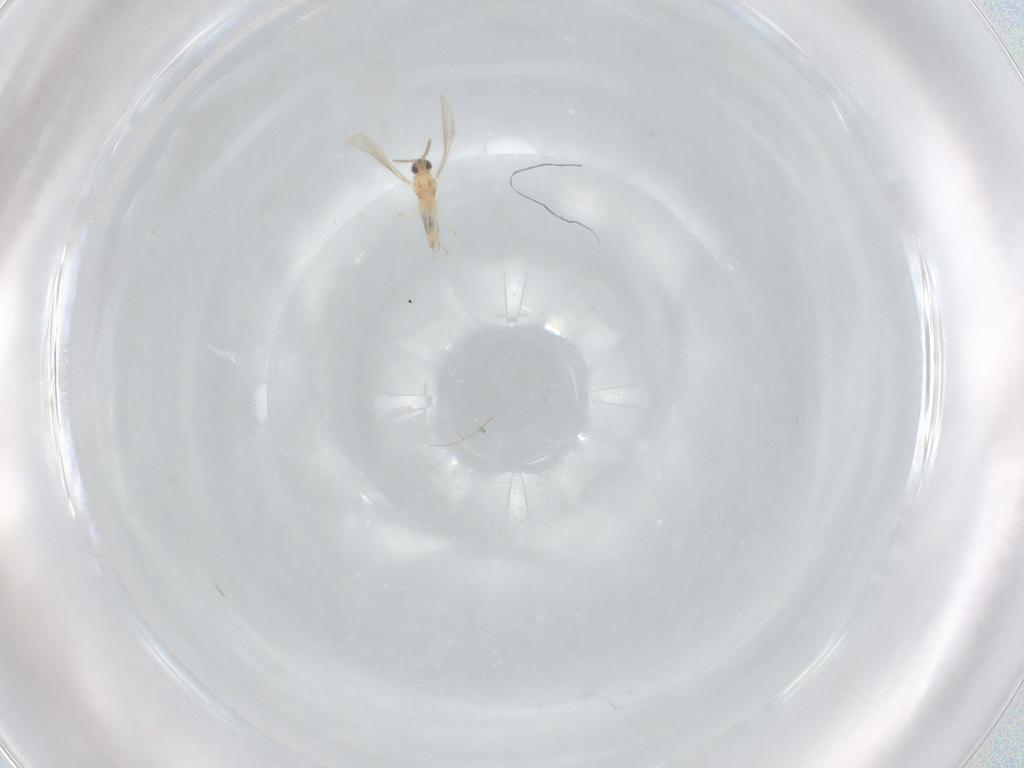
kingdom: Animalia
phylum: Arthropoda
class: Insecta
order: Diptera
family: Cecidomyiidae
